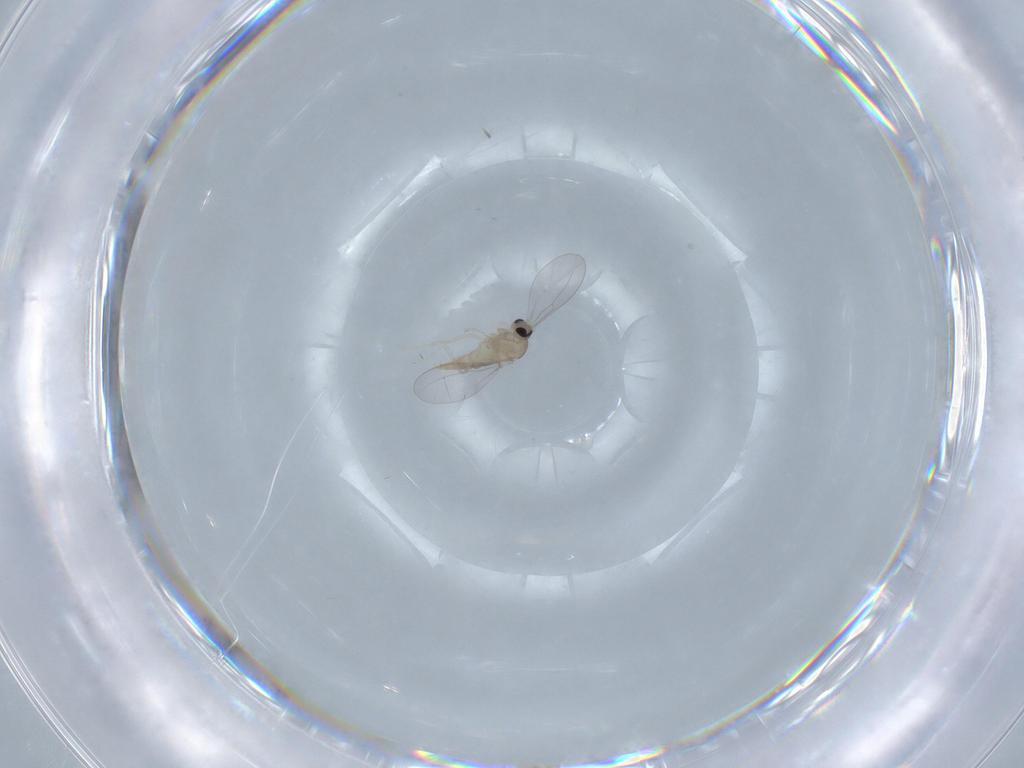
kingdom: Animalia
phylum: Arthropoda
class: Insecta
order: Diptera
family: Cecidomyiidae
